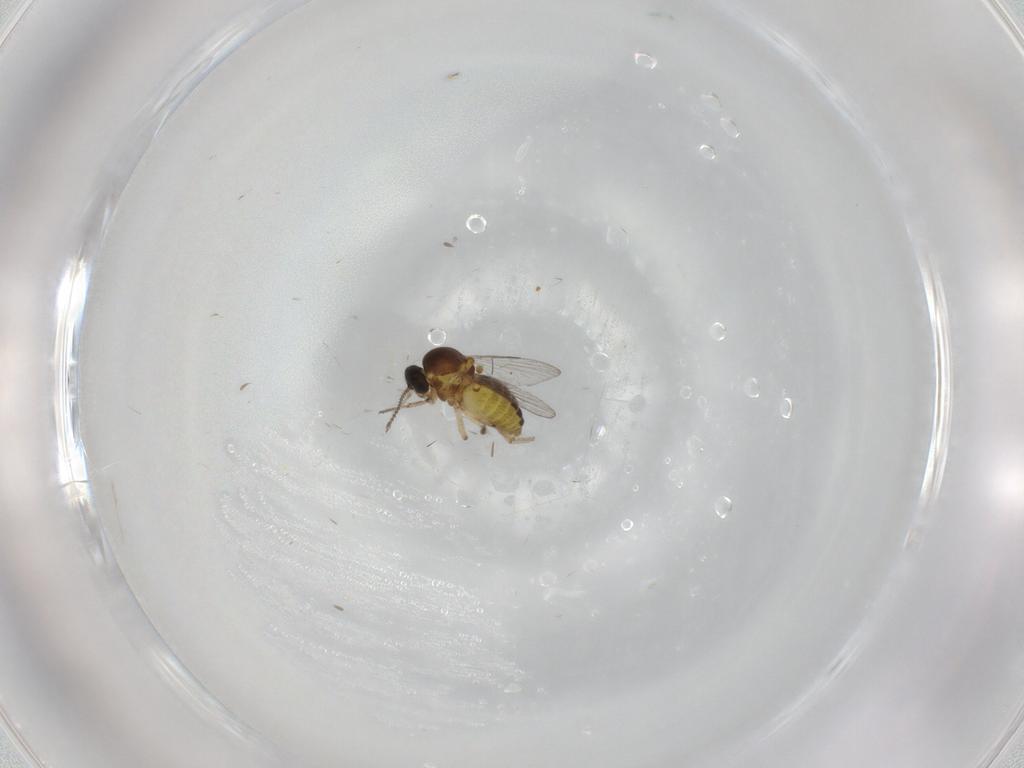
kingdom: Animalia
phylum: Arthropoda
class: Insecta
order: Diptera
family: Ceratopogonidae
